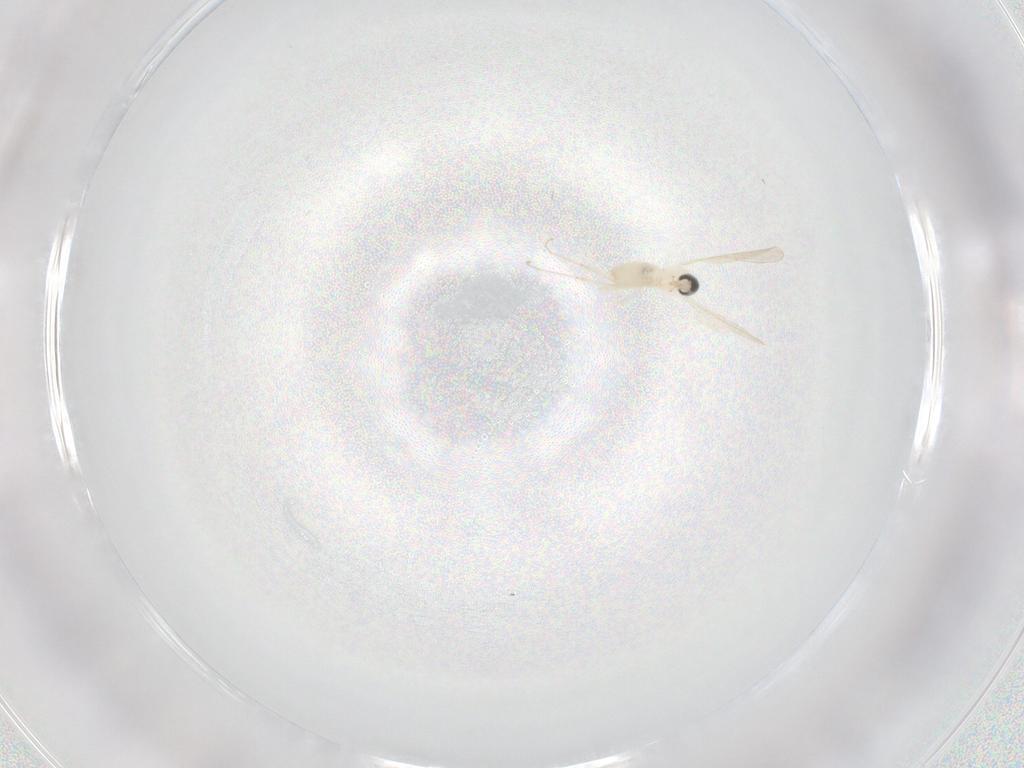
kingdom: Animalia
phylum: Arthropoda
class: Insecta
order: Diptera
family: Cecidomyiidae
